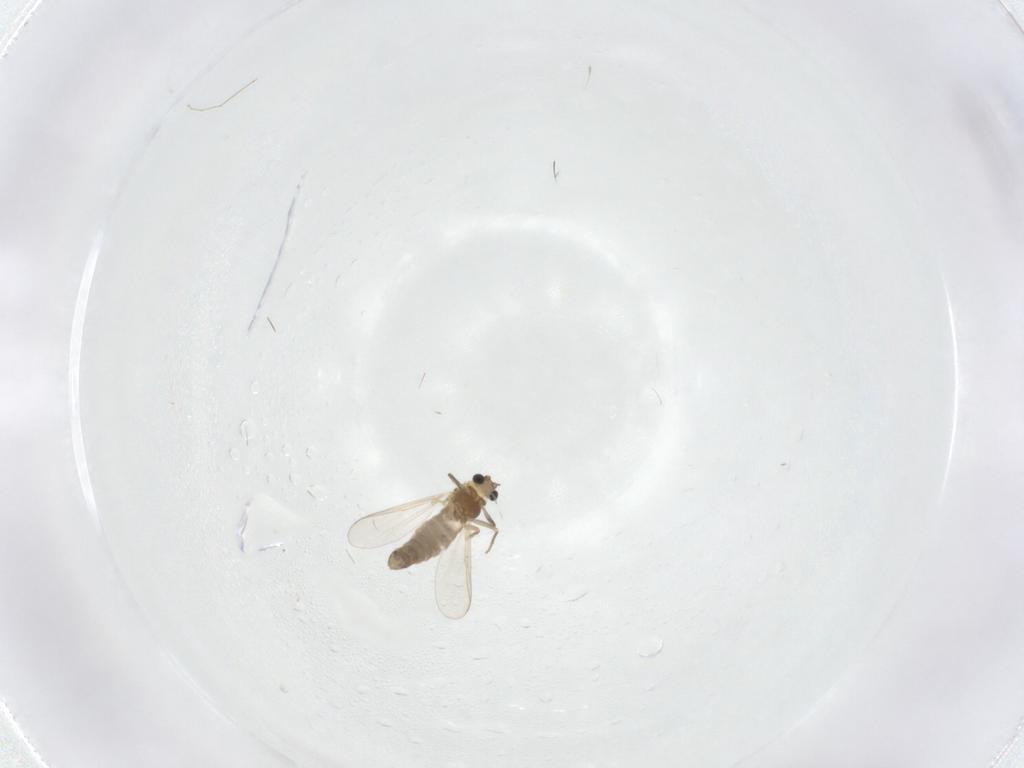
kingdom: Animalia
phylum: Arthropoda
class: Insecta
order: Diptera
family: Chironomidae
